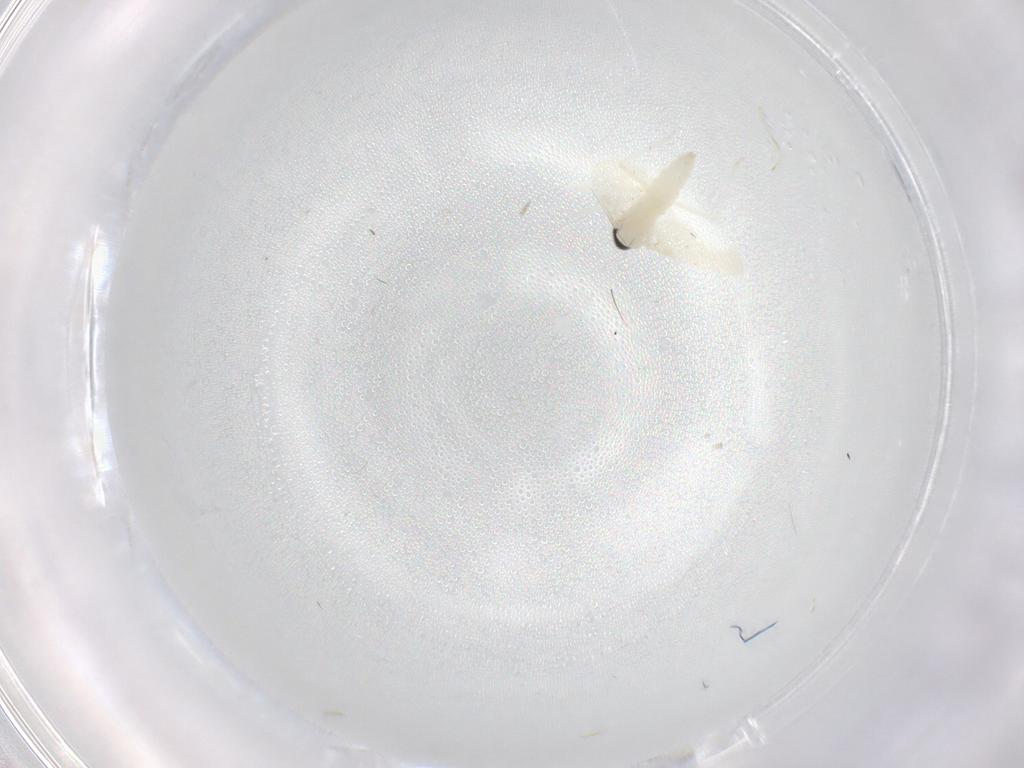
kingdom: Animalia
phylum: Arthropoda
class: Insecta
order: Diptera
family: Cecidomyiidae
